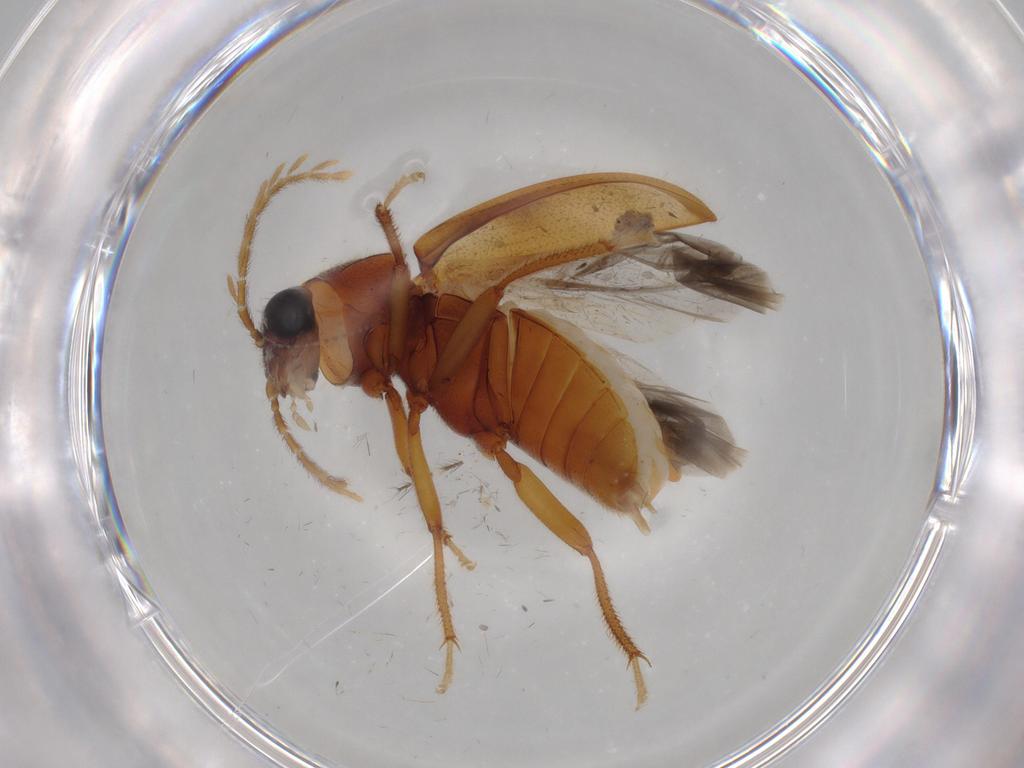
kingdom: Animalia
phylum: Arthropoda
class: Insecta
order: Coleoptera
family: Ptilodactylidae
